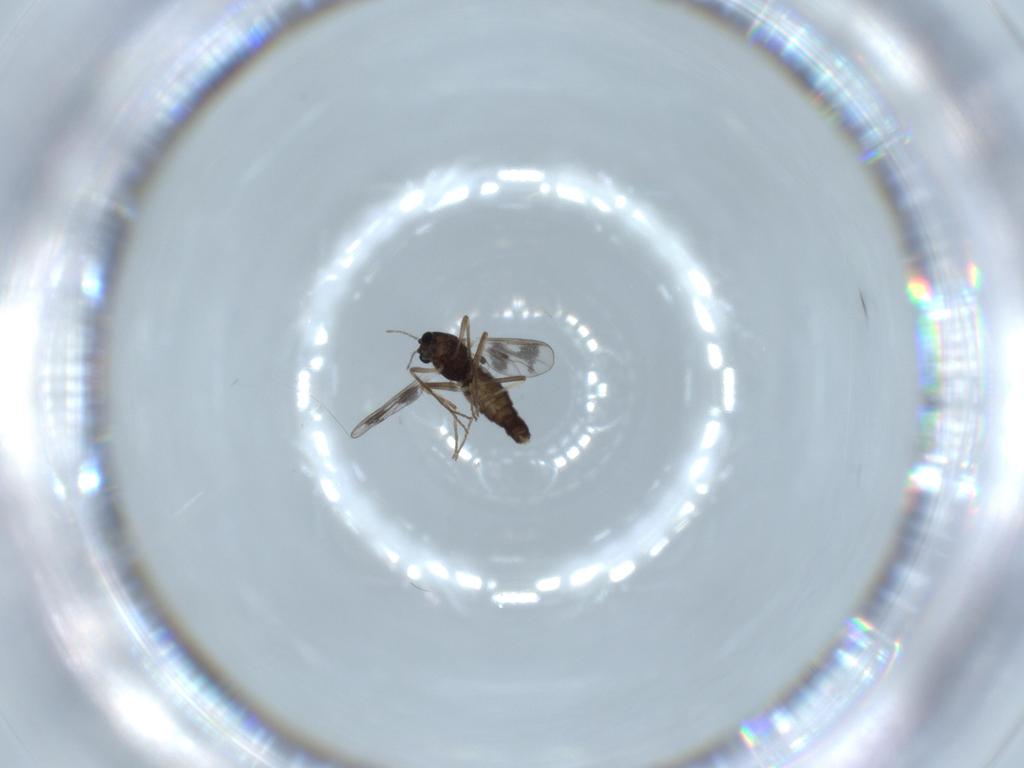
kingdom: Animalia
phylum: Arthropoda
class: Insecta
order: Diptera
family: Chironomidae
